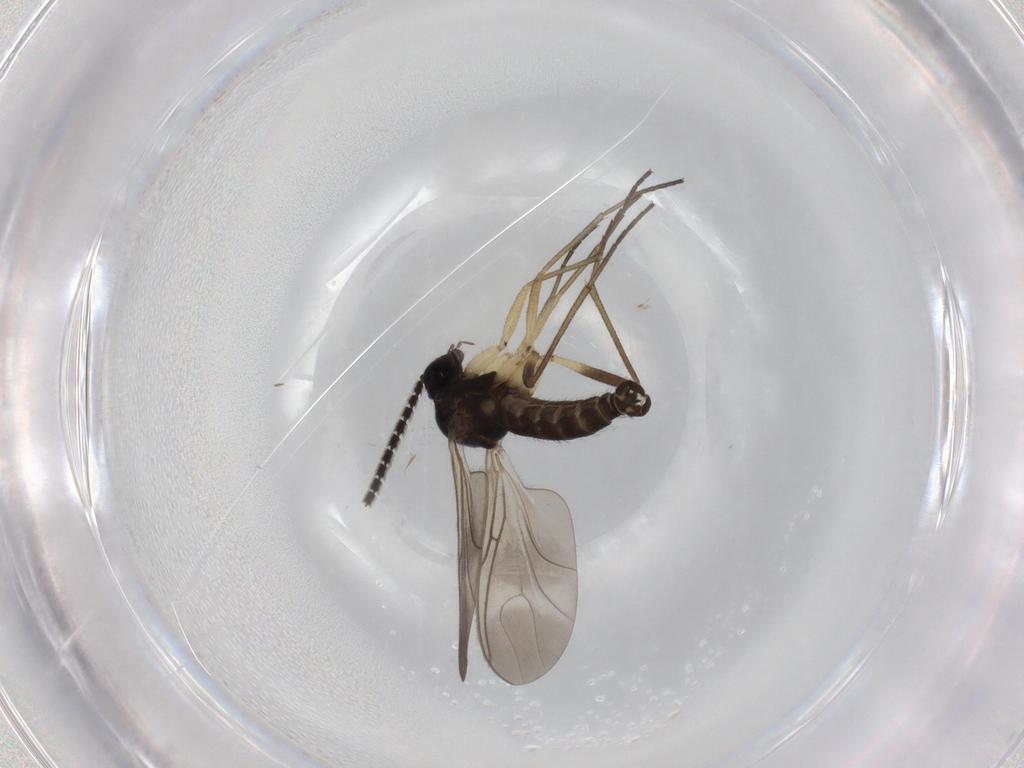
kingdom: Animalia
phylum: Arthropoda
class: Insecta
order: Diptera
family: Sciaridae
